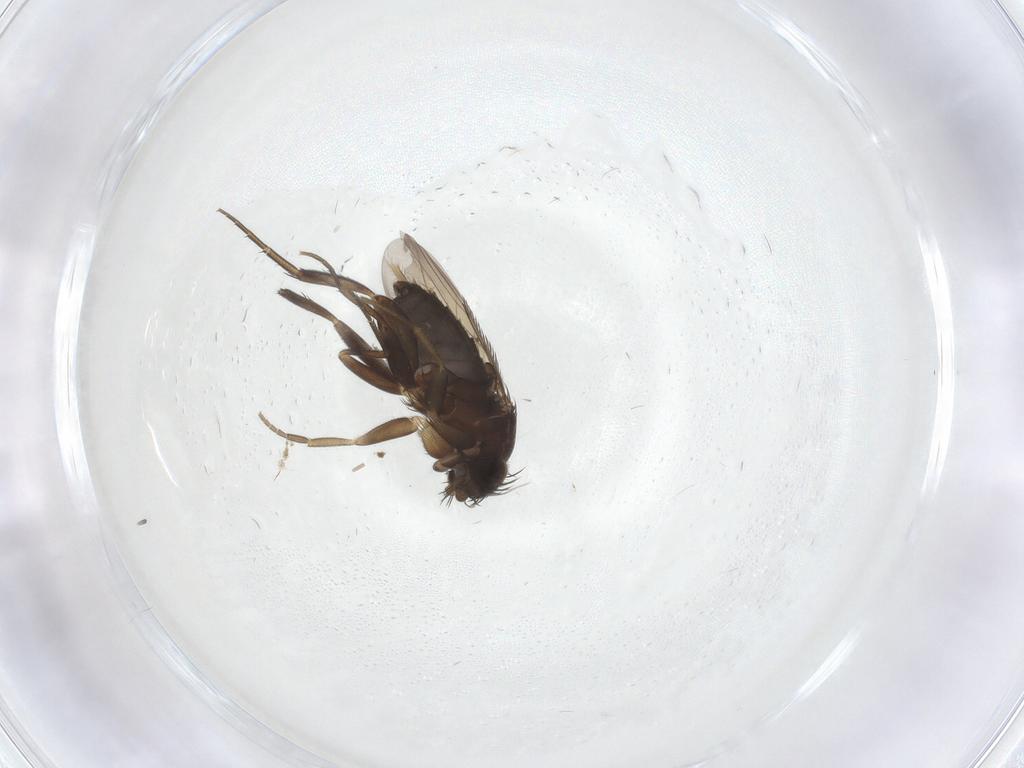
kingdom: Animalia
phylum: Arthropoda
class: Insecta
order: Diptera
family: Phoridae
